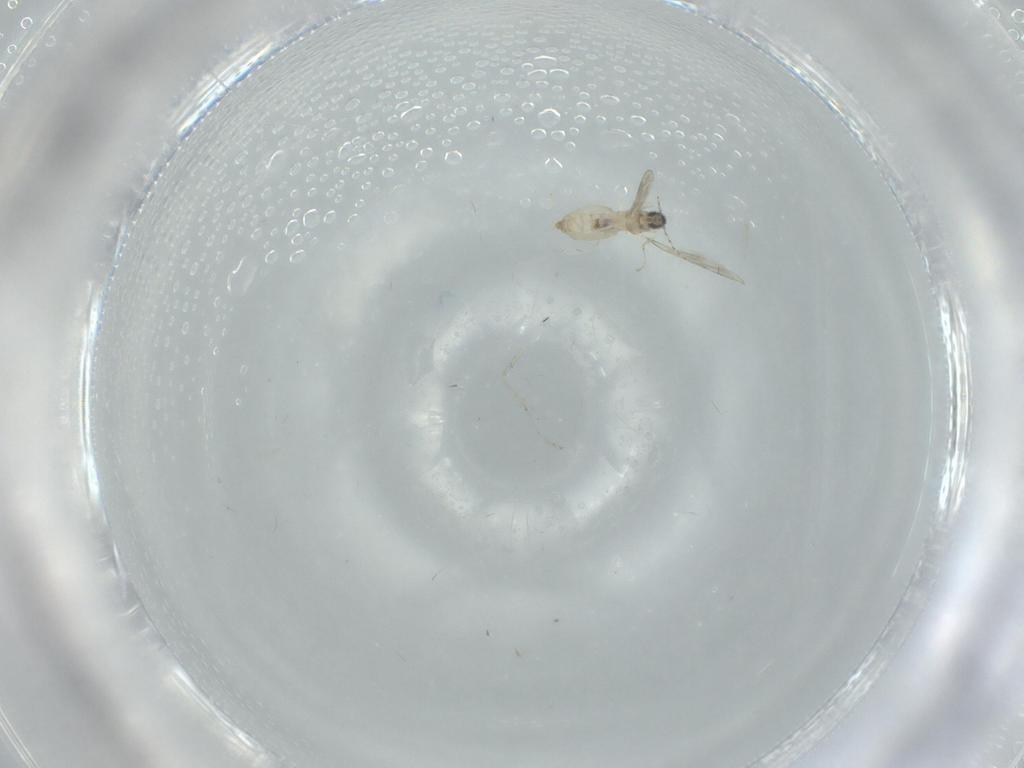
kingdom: Animalia
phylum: Arthropoda
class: Insecta
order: Diptera
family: Cecidomyiidae
